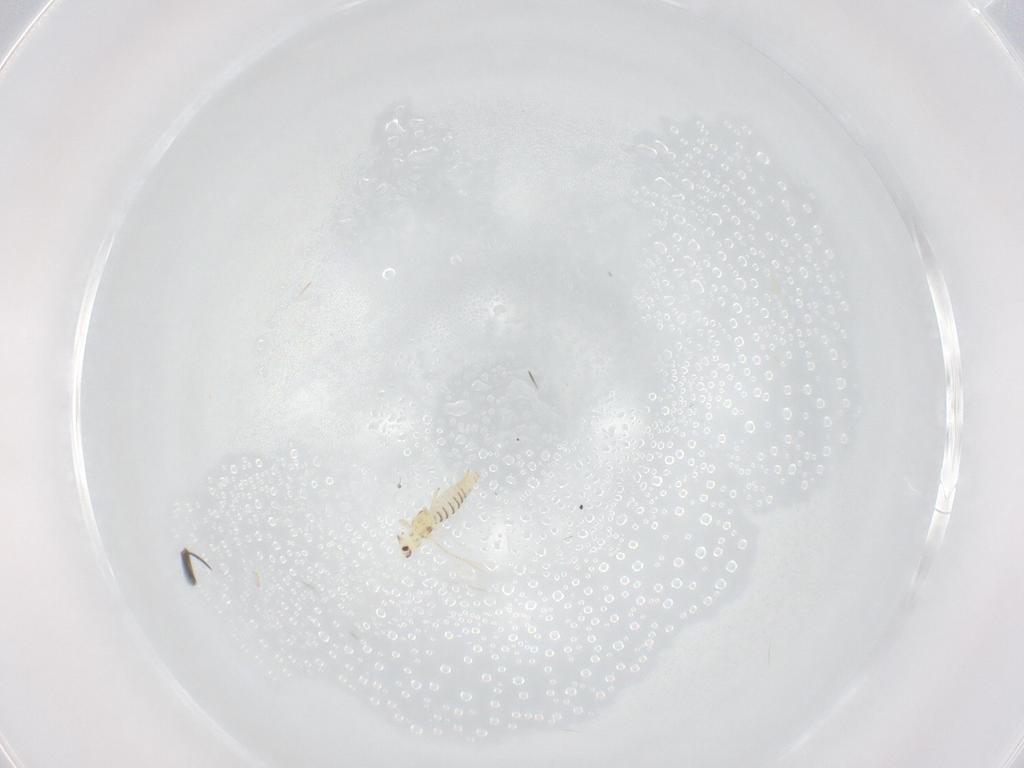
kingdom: Animalia
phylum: Arthropoda
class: Insecta
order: Thysanoptera
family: Thripidae
